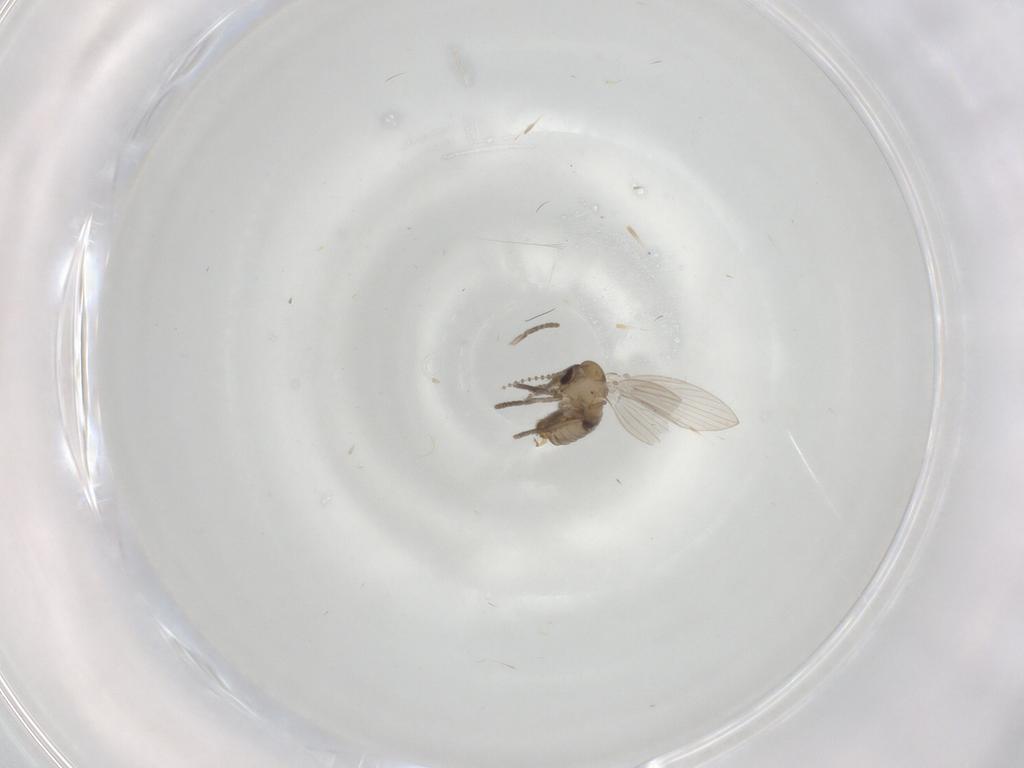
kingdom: Animalia
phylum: Arthropoda
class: Insecta
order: Diptera
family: Psychodidae
